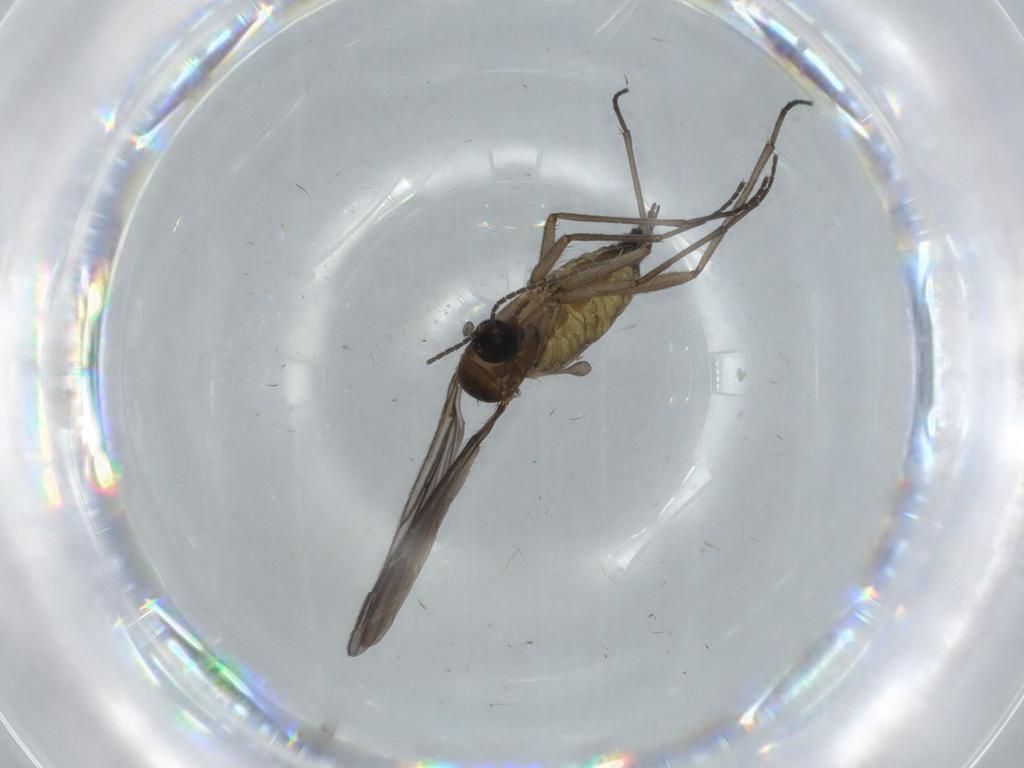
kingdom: Animalia
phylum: Arthropoda
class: Insecta
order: Diptera
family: Sciaridae
